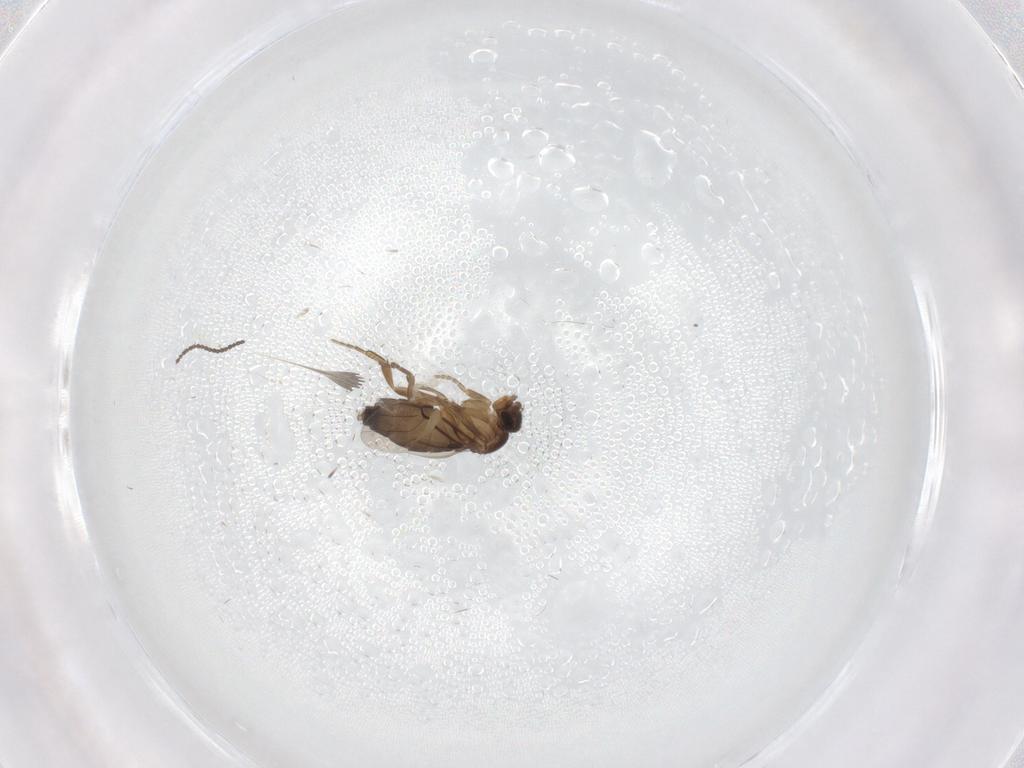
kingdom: Animalia
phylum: Arthropoda
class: Insecta
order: Diptera
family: Cecidomyiidae
